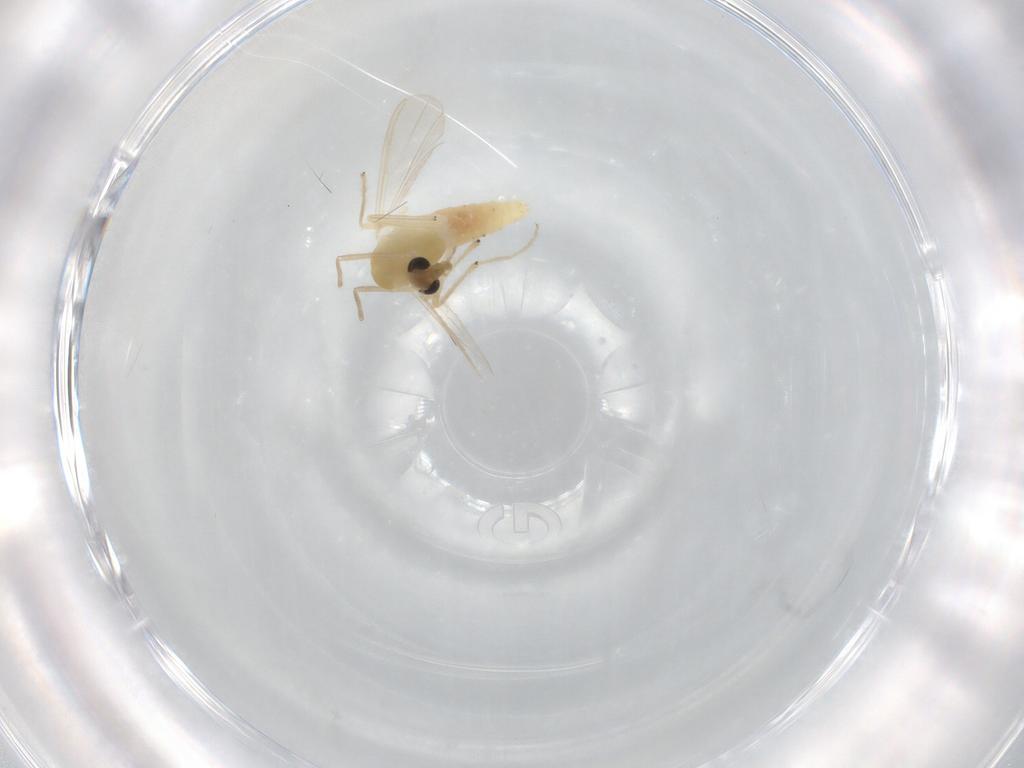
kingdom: Animalia
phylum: Arthropoda
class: Insecta
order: Diptera
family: Chironomidae
